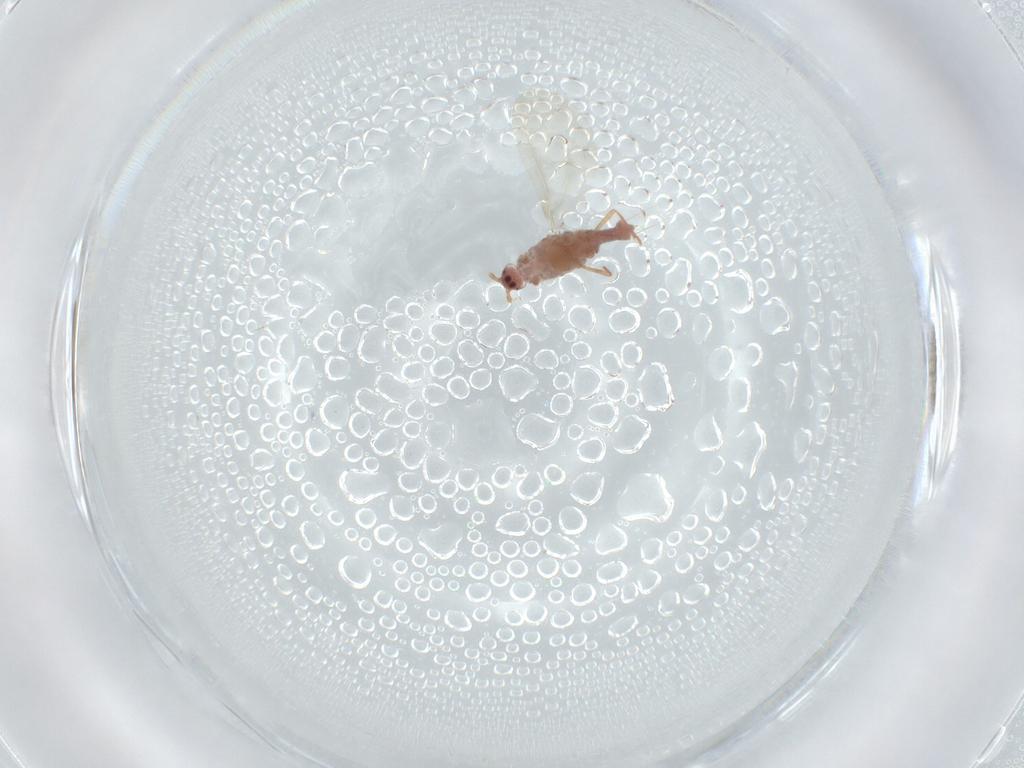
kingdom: Animalia
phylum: Arthropoda
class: Insecta
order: Hemiptera
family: Rhyparochromidae
